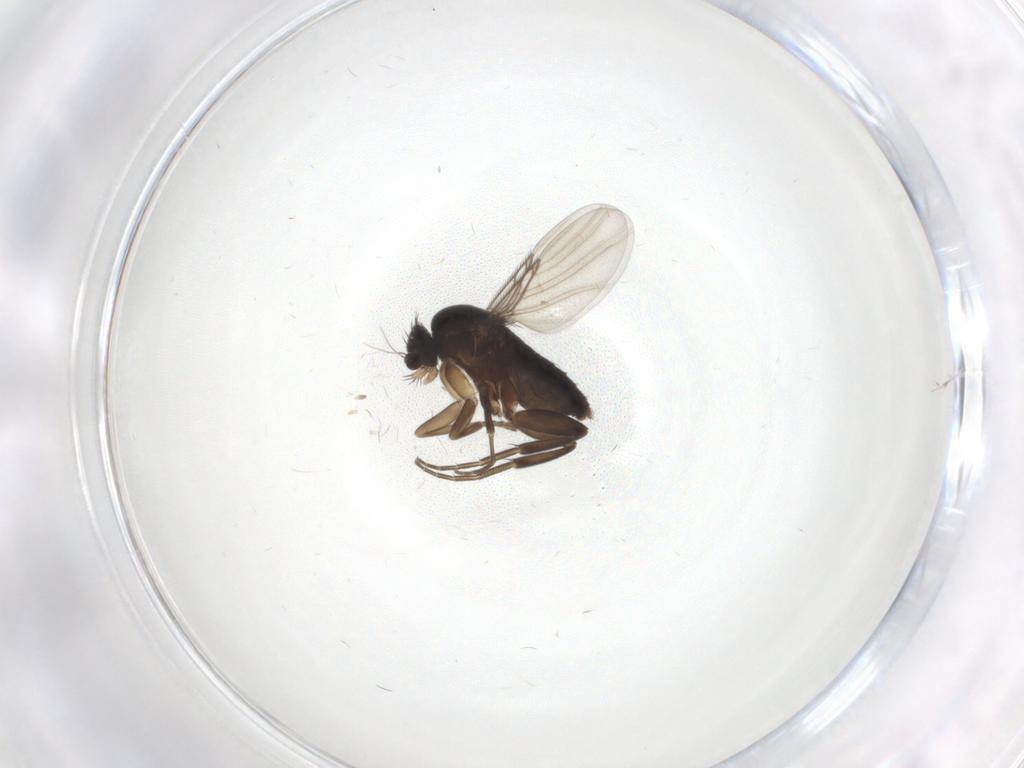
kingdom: Animalia
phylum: Arthropoda
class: Insecta
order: Diptera
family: Phoridae
